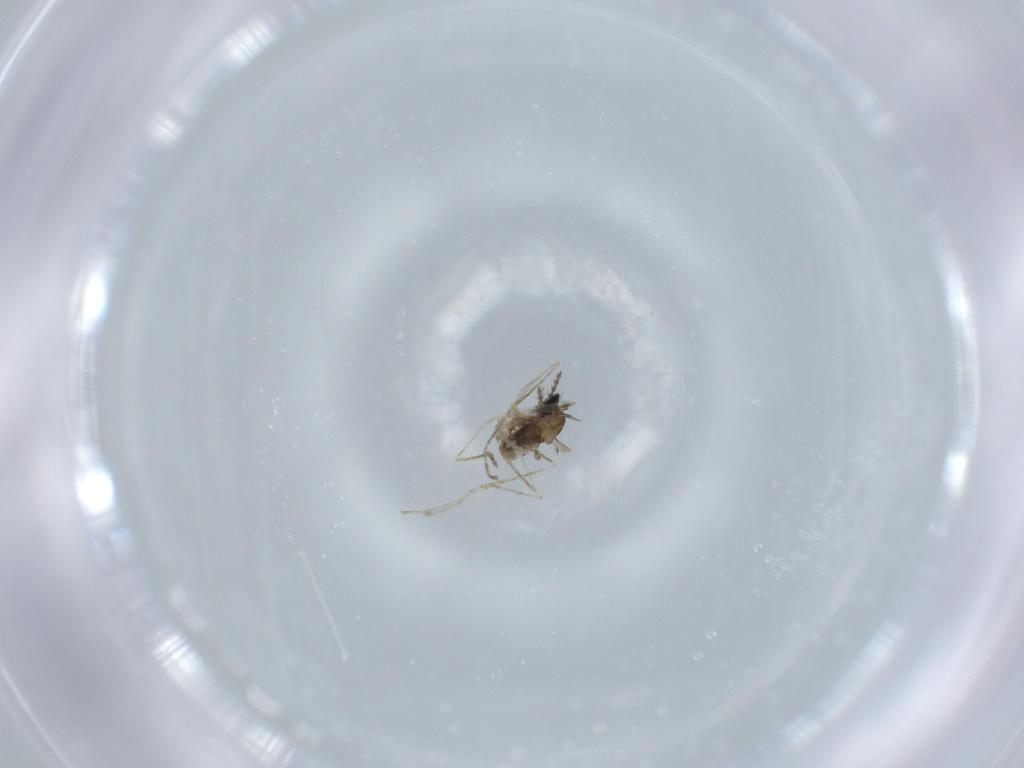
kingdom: Animalia
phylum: Arthropoda
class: Insecta
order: Diptera
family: Cecidomyiidae
